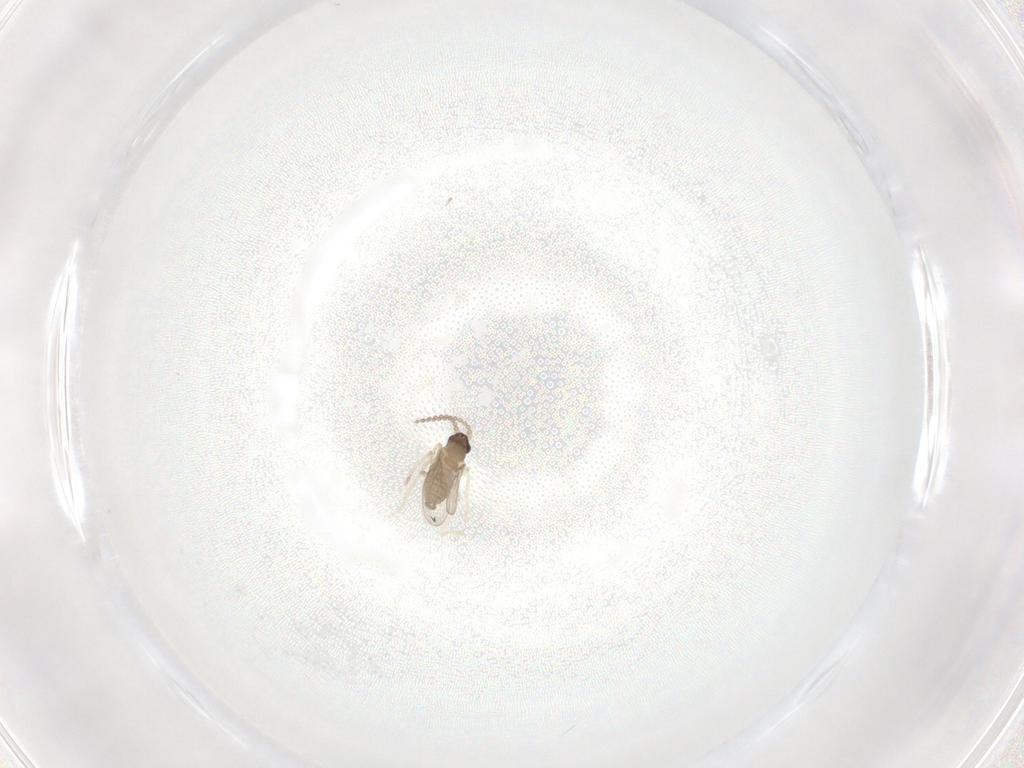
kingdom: Animalia
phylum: Arthropoda
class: Insecta
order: Diptera
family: Cecidomyiidae
